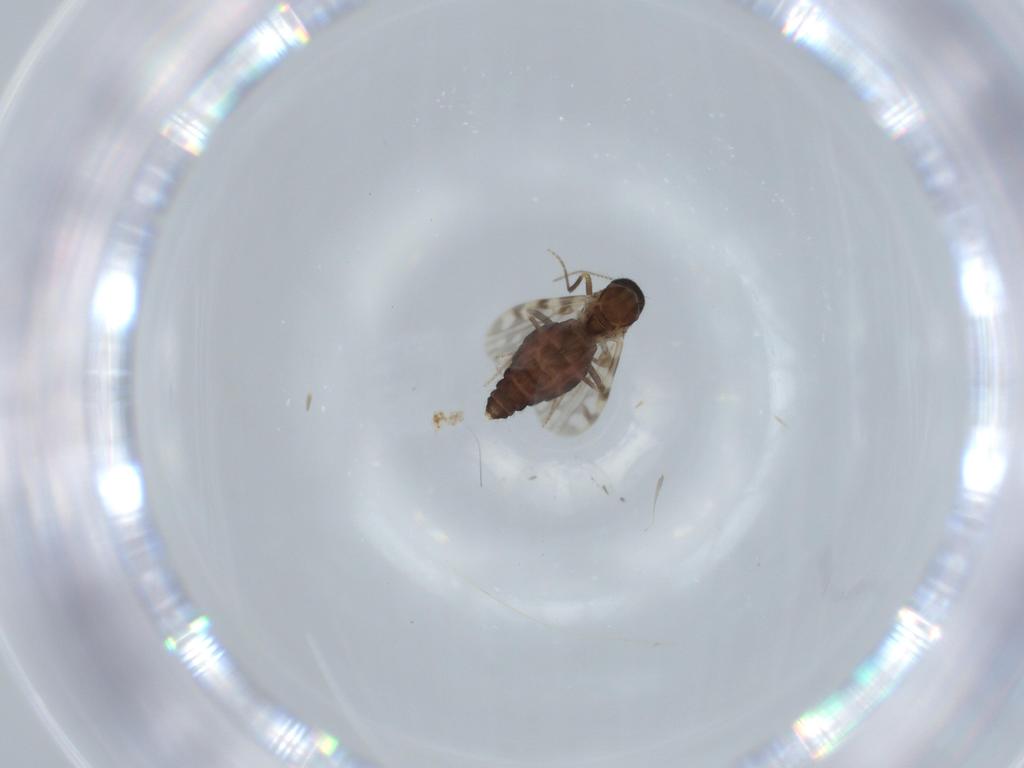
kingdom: Animalia
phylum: Arthropoda
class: Insecta
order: Diptera
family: Ceratopogonidae
